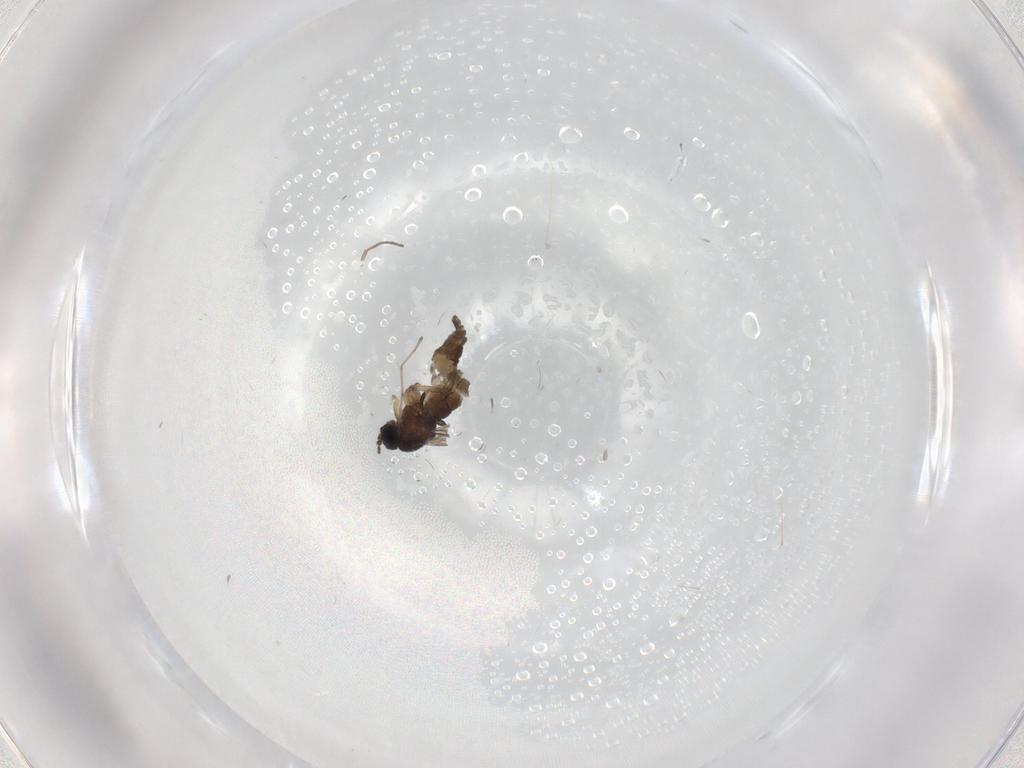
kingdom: Animalia
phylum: Arthropoda
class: Insecta
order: Diptera
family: Sciaridae
